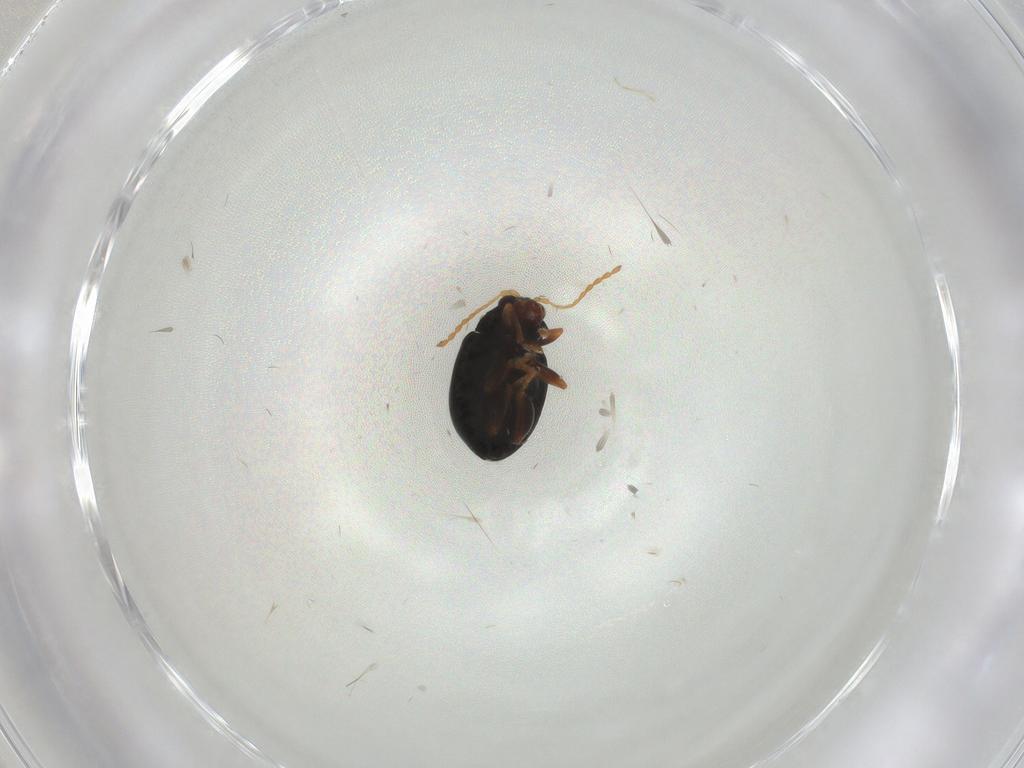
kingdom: Animalia
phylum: Arthropoda
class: Insecta
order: Coleoptera
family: Chrysomelidae
